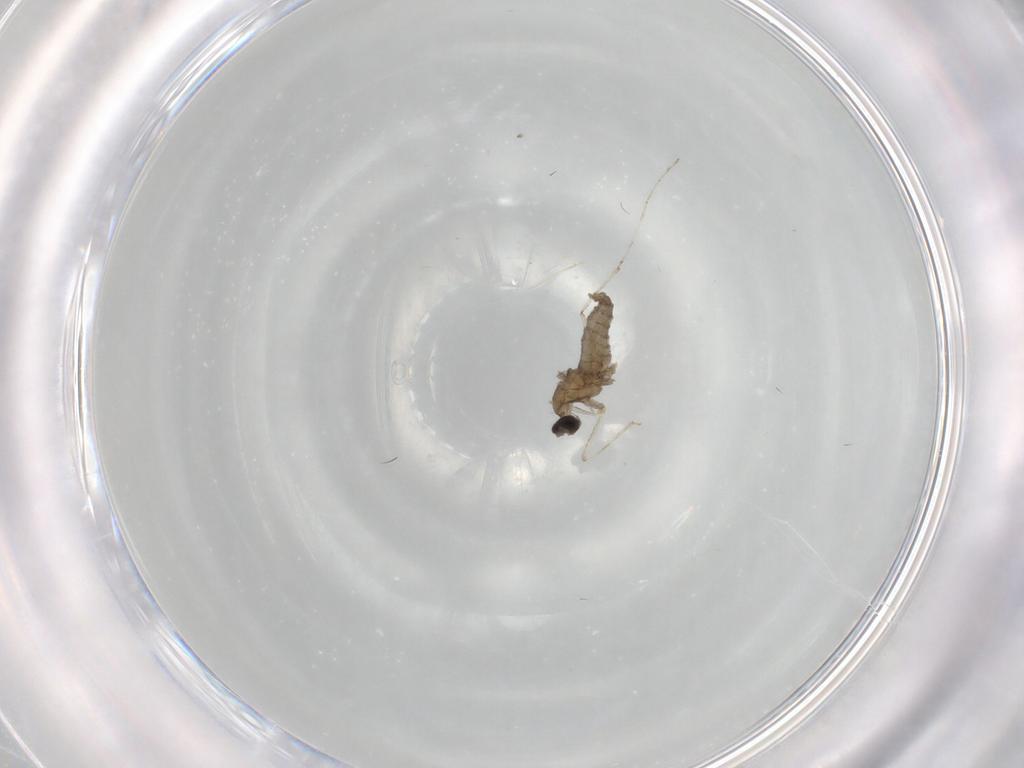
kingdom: Animalia
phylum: Arthropoda
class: Insecta
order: Diptera
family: Cecidomyiidae
